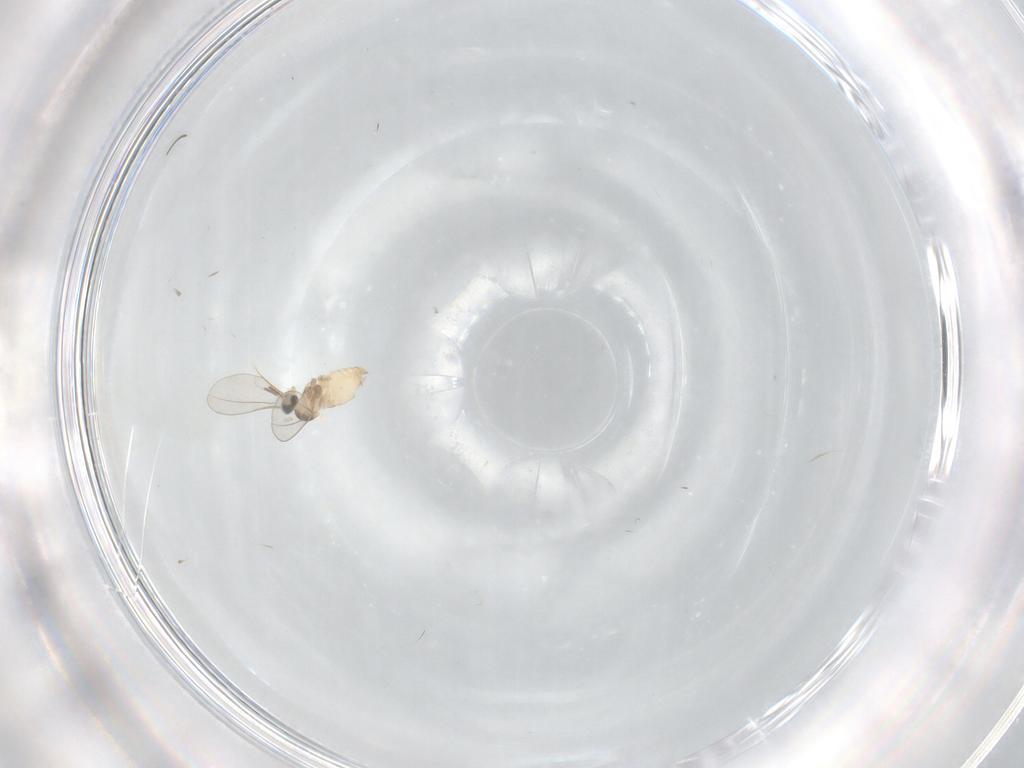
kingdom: Animalia
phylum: Arthropoda
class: Insecta
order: Diptera
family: Cecidomyiidae
